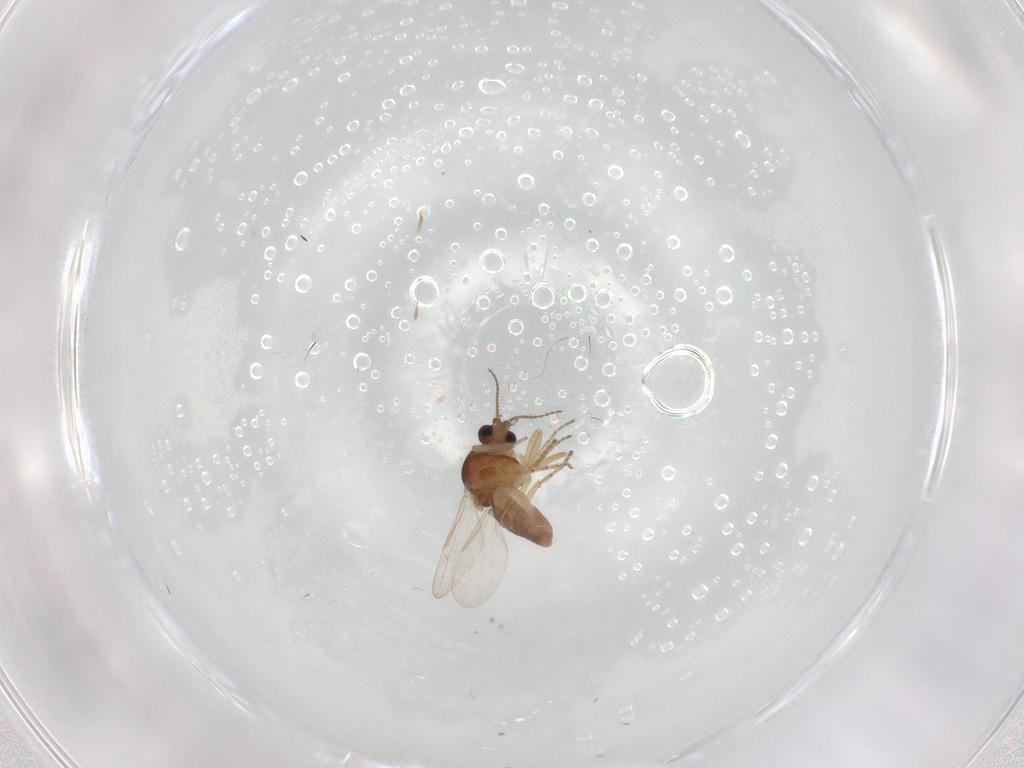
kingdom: Animalia
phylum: Arthropoda
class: Insecta
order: Diptera
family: Ceratopogonidae
